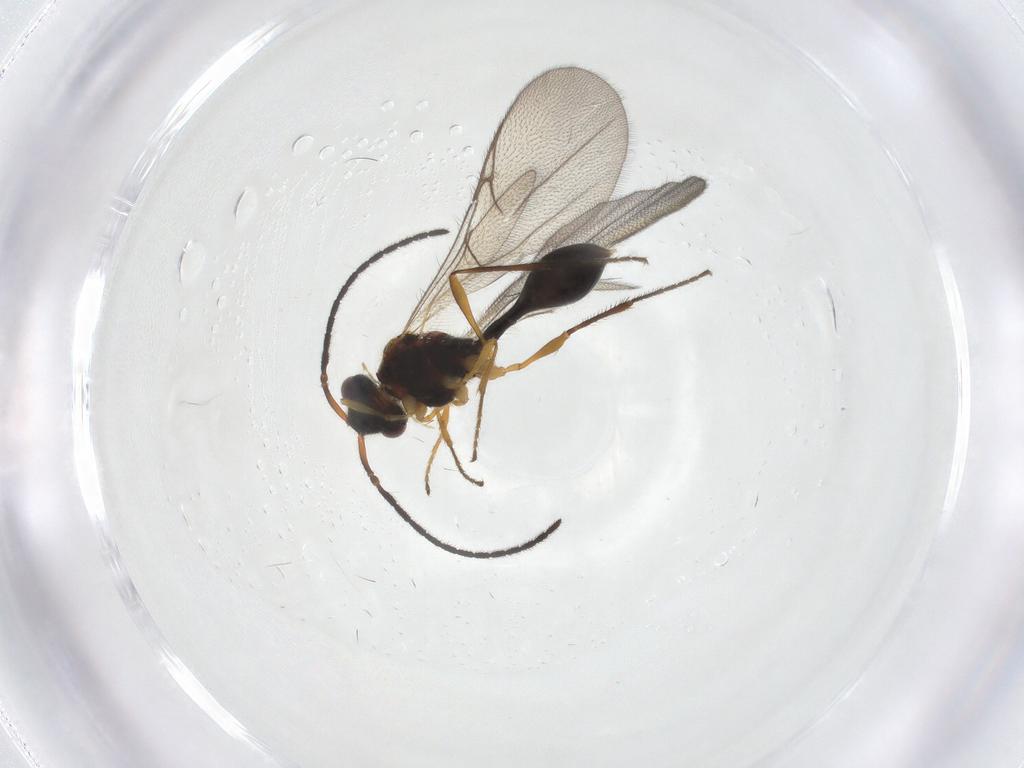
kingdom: Animalia
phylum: Arthropoda
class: Insecta
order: Hymenoptera
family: Diapriidae
